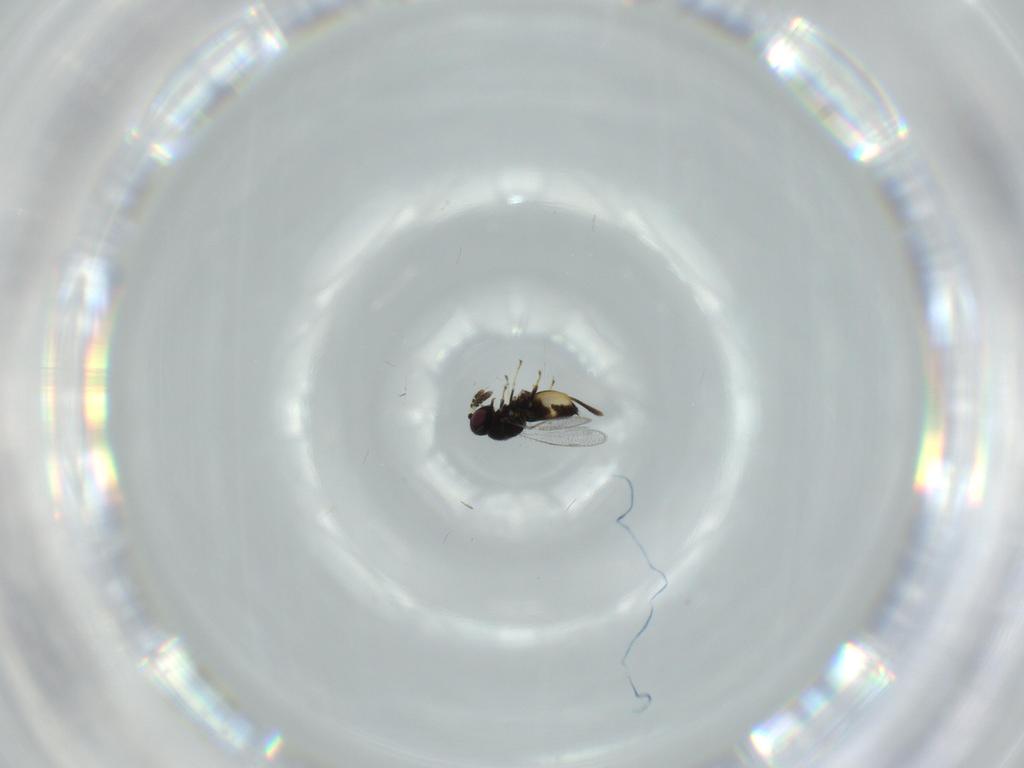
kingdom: Animalia
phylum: Arthropoda
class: Insecta
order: Hymenoptera
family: Pirenidae
